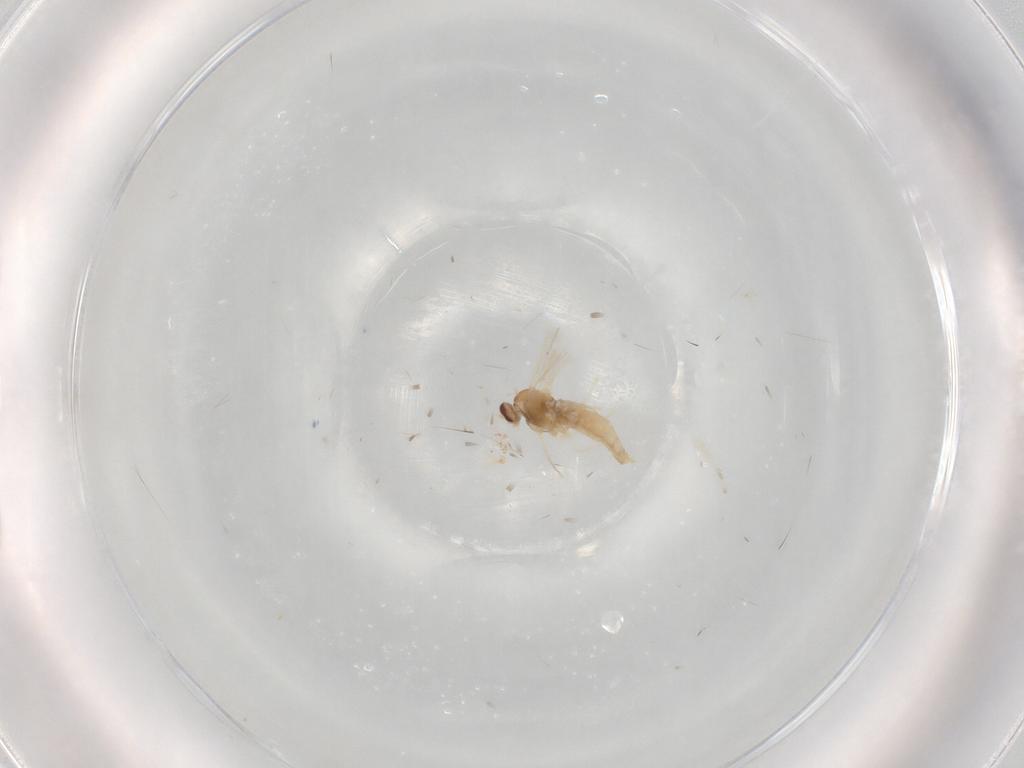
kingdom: Animalia
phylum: Arthropoda
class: Insecta
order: Diptera
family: Cecidomyiidae
